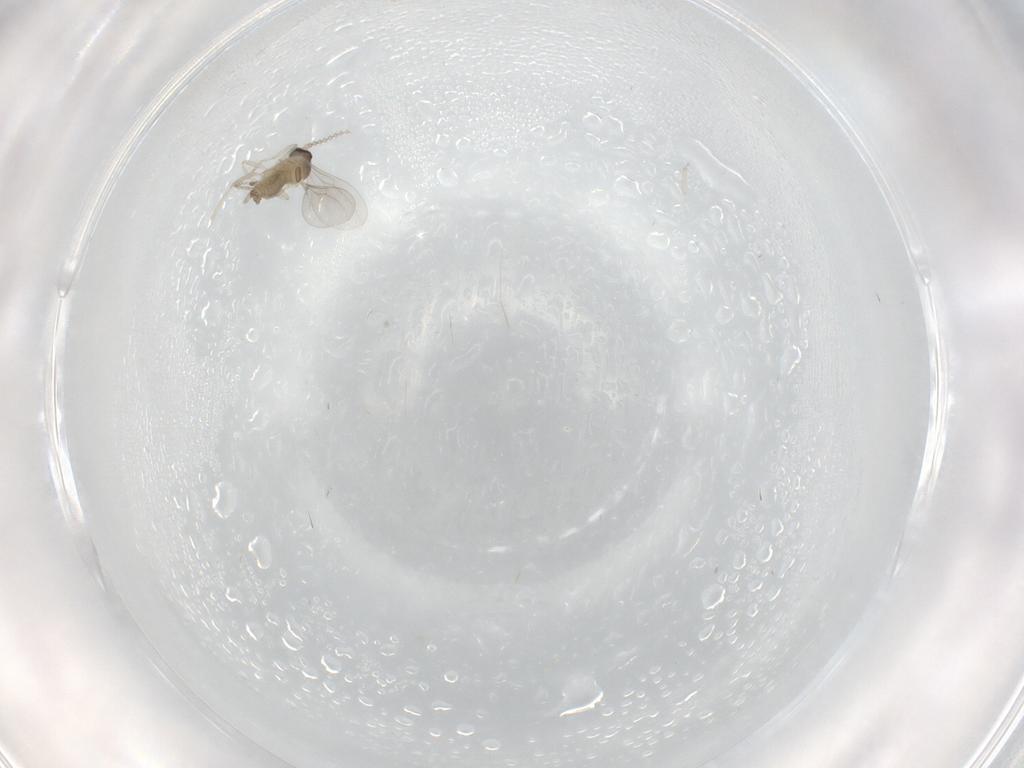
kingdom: Animalia
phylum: Arthropoda
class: Insecta
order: Diptera
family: Cecidomyiidae
